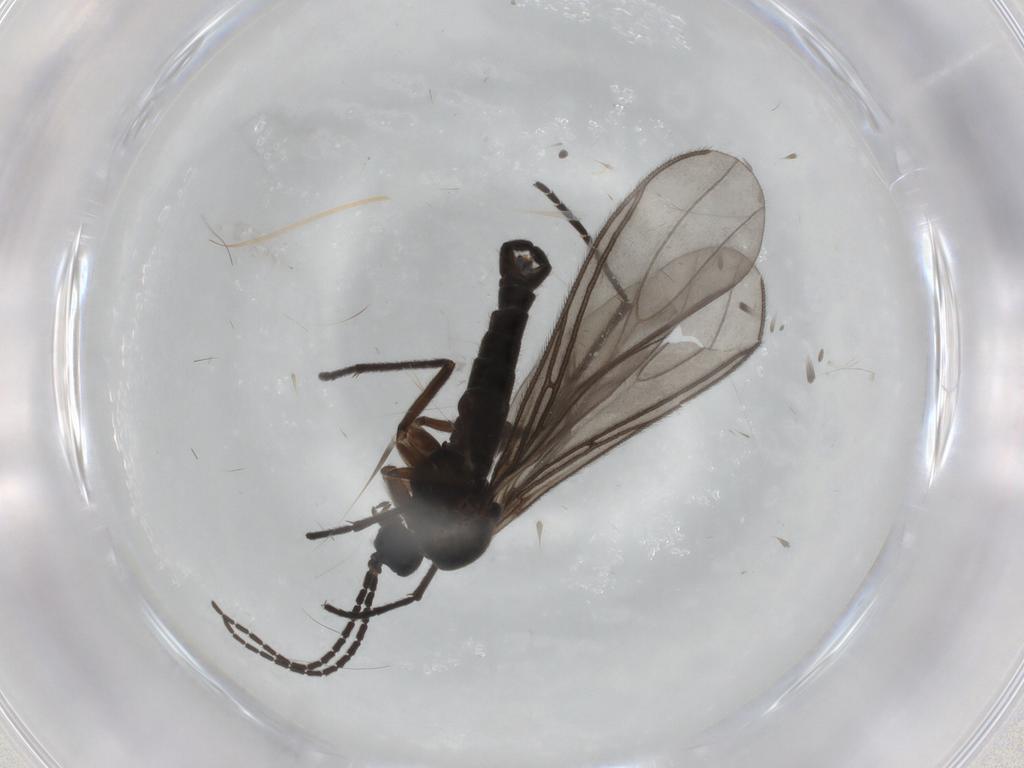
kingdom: Animalia
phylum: Arthropoda
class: Insecta
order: Diptera
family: Sciaridae
